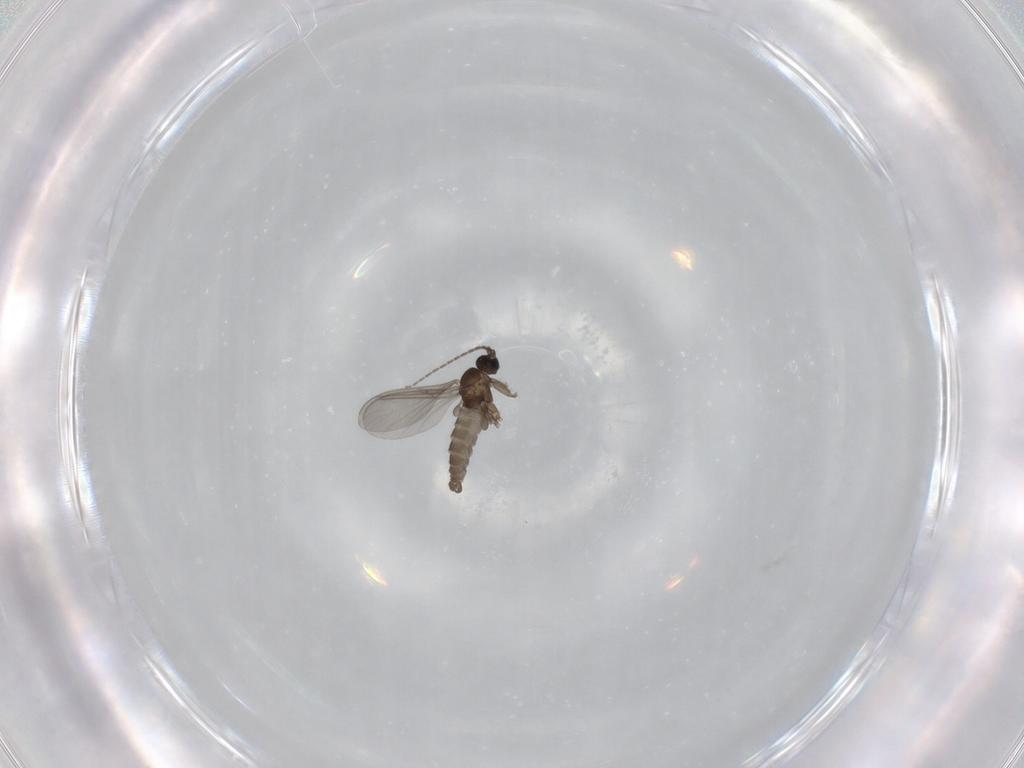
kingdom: Animalia
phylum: Arthropoda
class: Insecta
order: Diptera
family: Sciaridae
